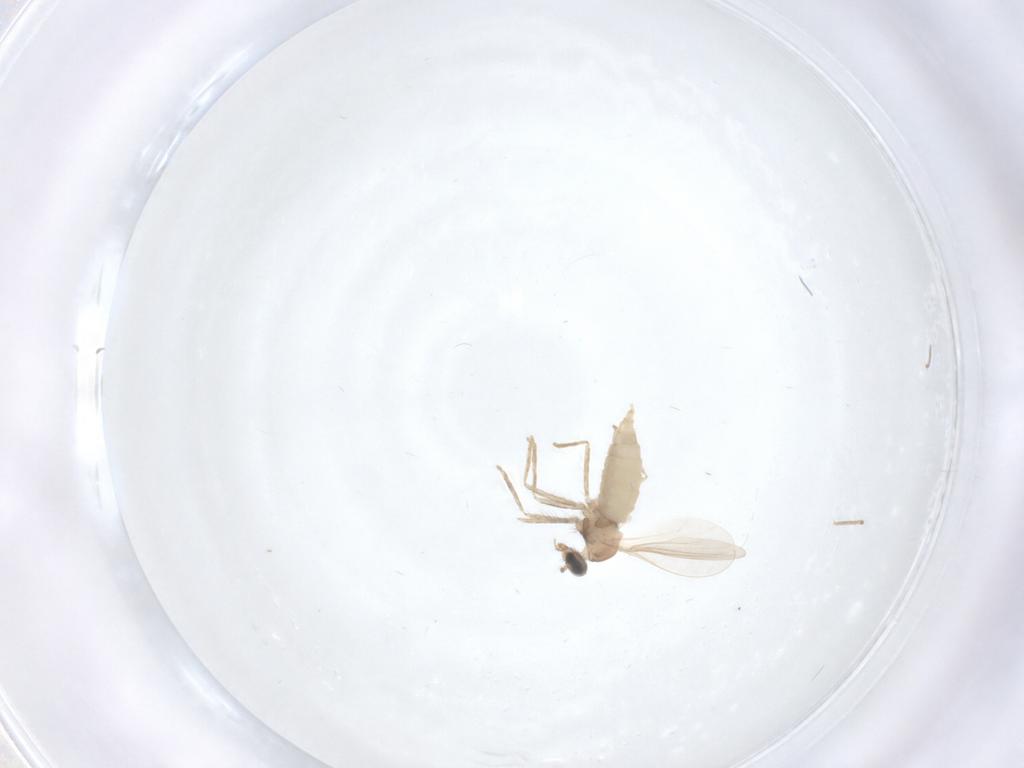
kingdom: Animalia
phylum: Arthropoda
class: Insecta
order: Diptera
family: Cecidomyiidae
